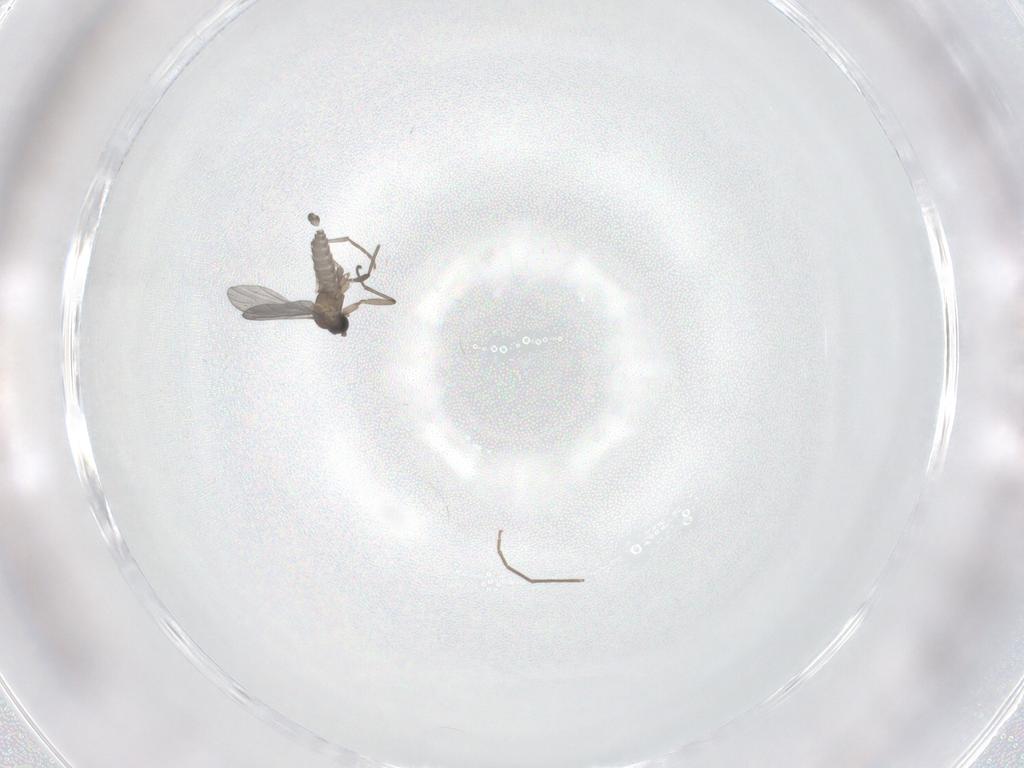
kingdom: Animalia
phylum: Arthropoda
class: Insecta
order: Diptera
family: Sciaridae
